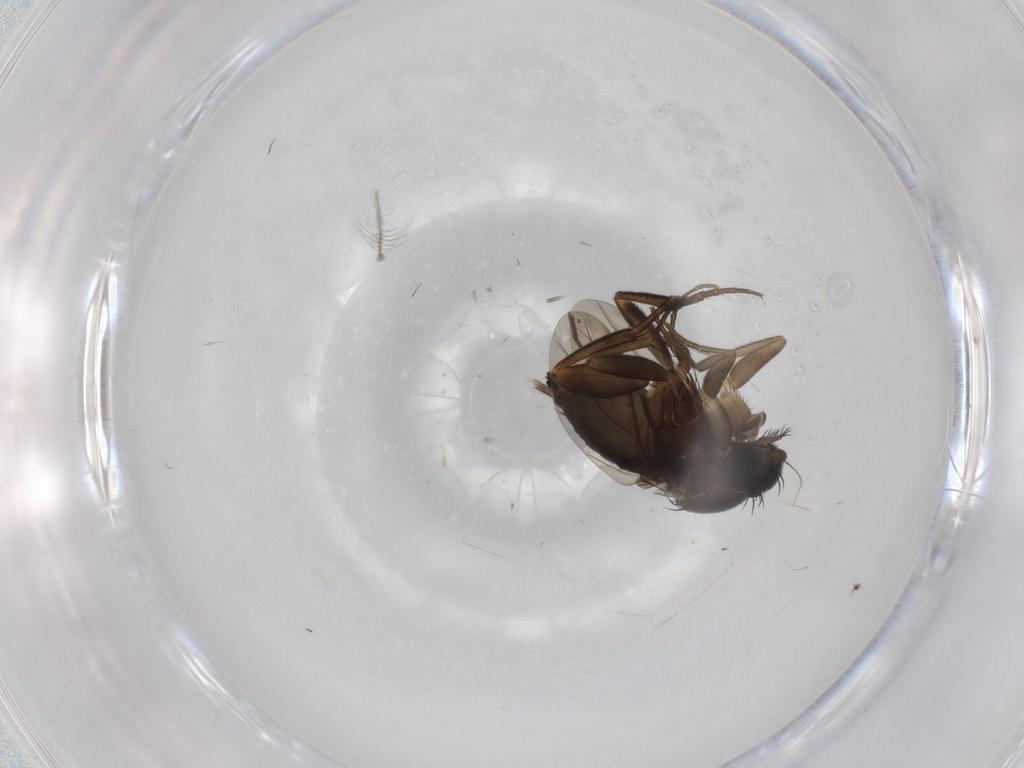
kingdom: Animalia
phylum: Arthropoda
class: Insecta
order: Diptera
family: Phoridae
